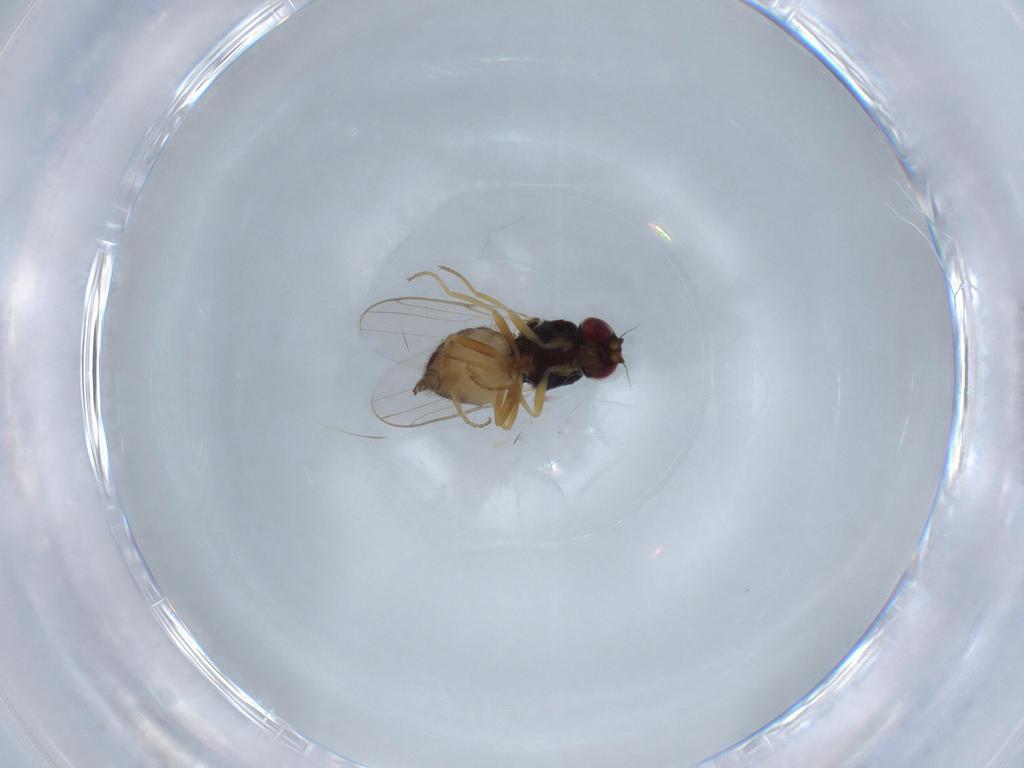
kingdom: Animalia
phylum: Arthropoda
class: Insecta
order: Diptera
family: Chloropidae
